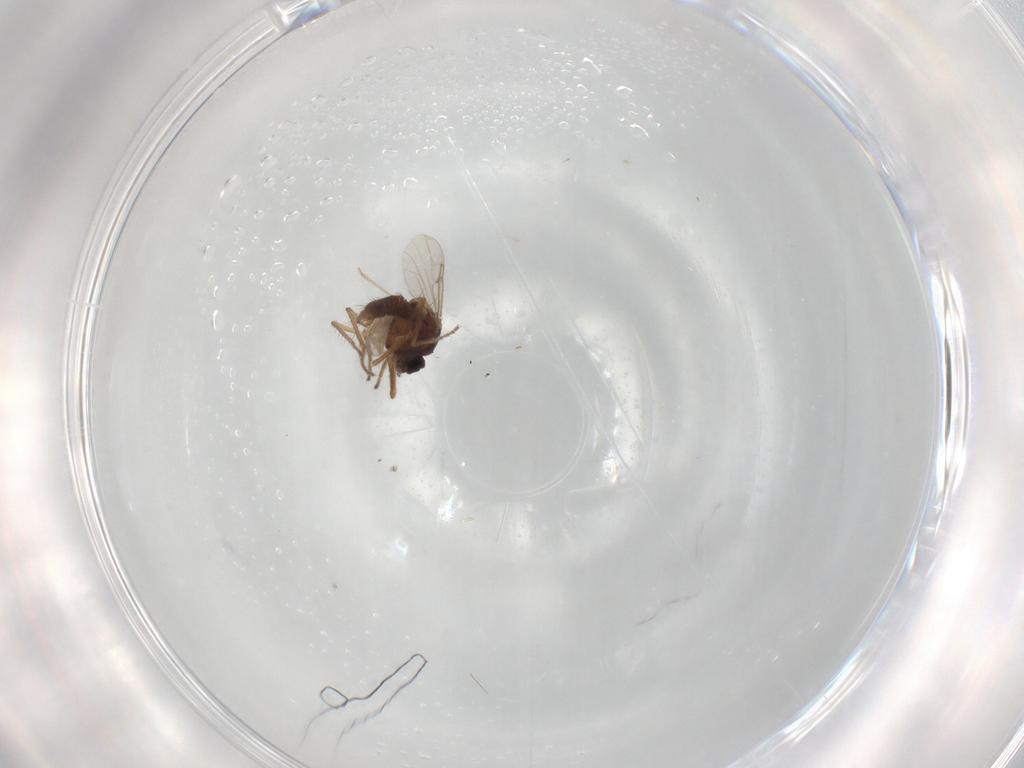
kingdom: Animalia
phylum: Arthropoda
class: Insecta
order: Diptera
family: Ceratopogonidae
